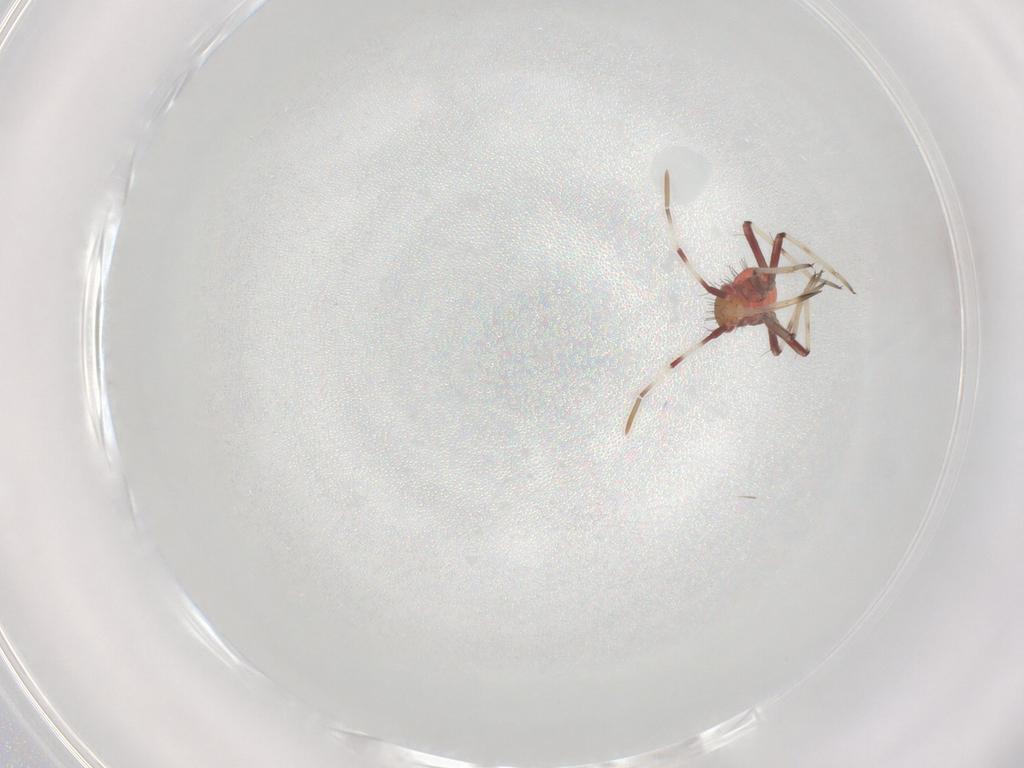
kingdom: Animalia
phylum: Arthropoda
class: Insecta
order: Hemiptera
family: Miridae
